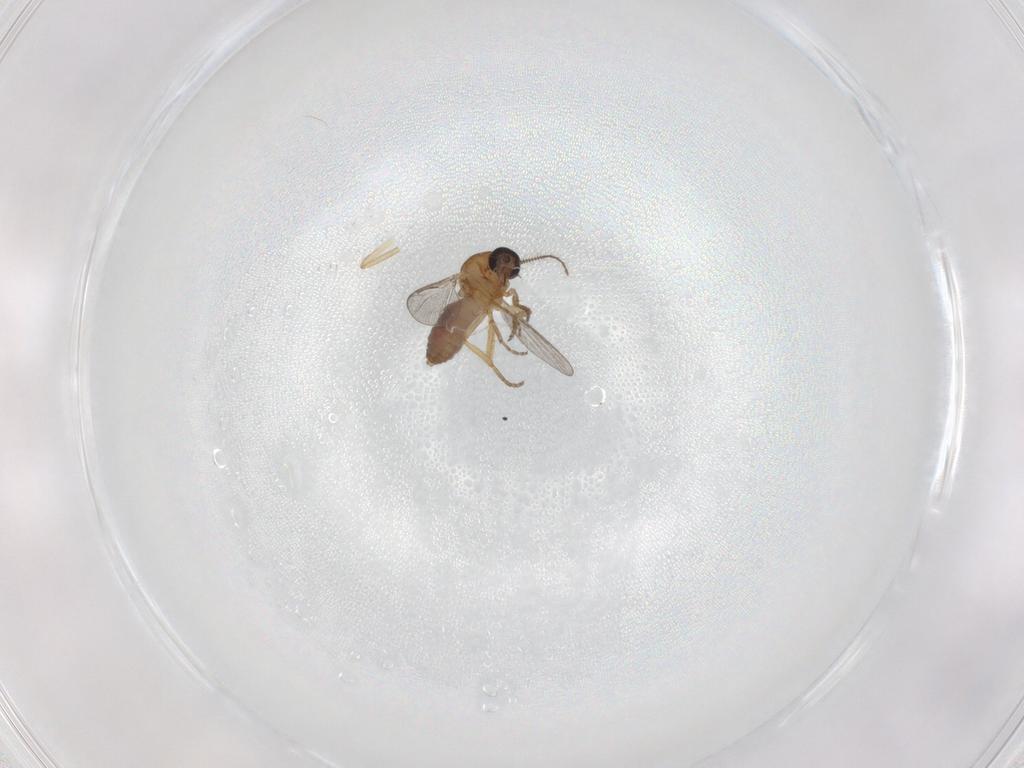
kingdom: Animalia
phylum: Arthropoda
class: Insecta
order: Diptera
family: Ceratopogonidae
